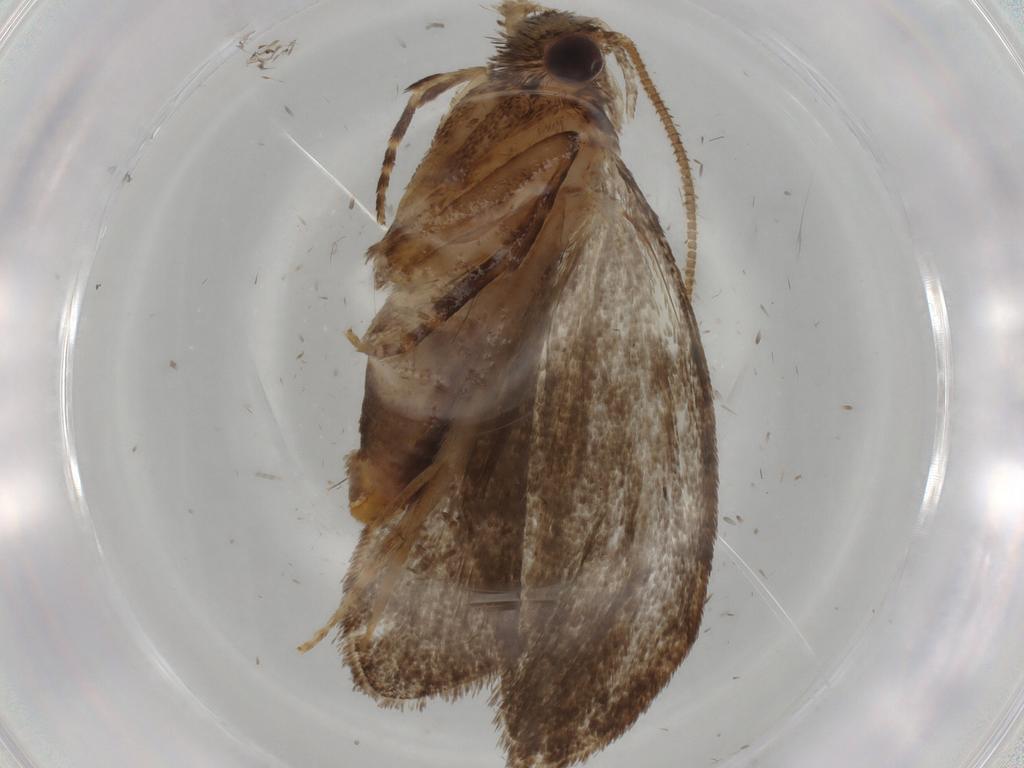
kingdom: Animalia
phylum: Arthropoda
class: Insecta
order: Lepidoptera
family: Tineidae
